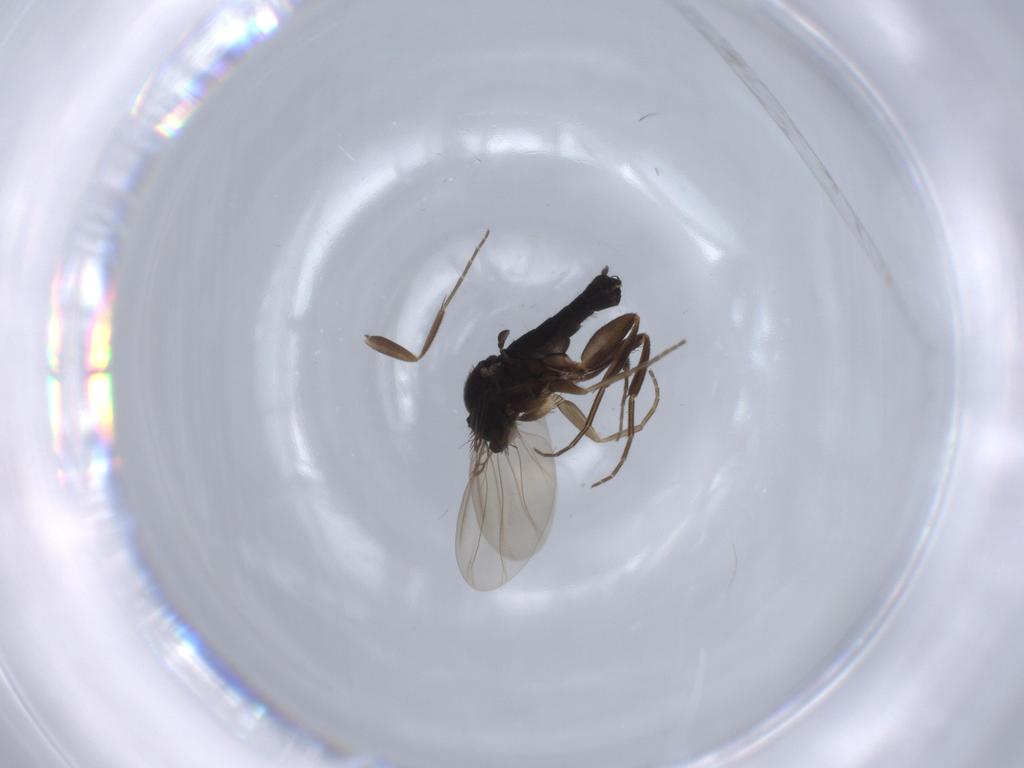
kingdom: Animalia
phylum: Arthropoda
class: Insecta
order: Diptera
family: Phoridae
